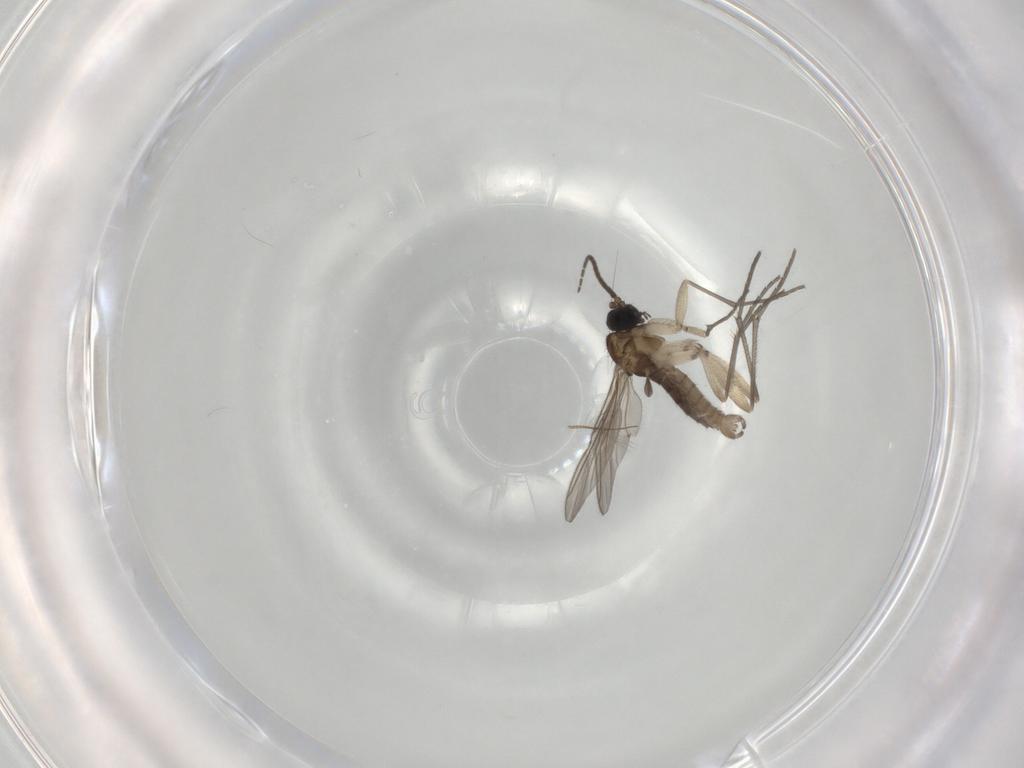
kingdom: Animalia
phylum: Arthropoda
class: Insecta
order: Diptera
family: Sciaridae
